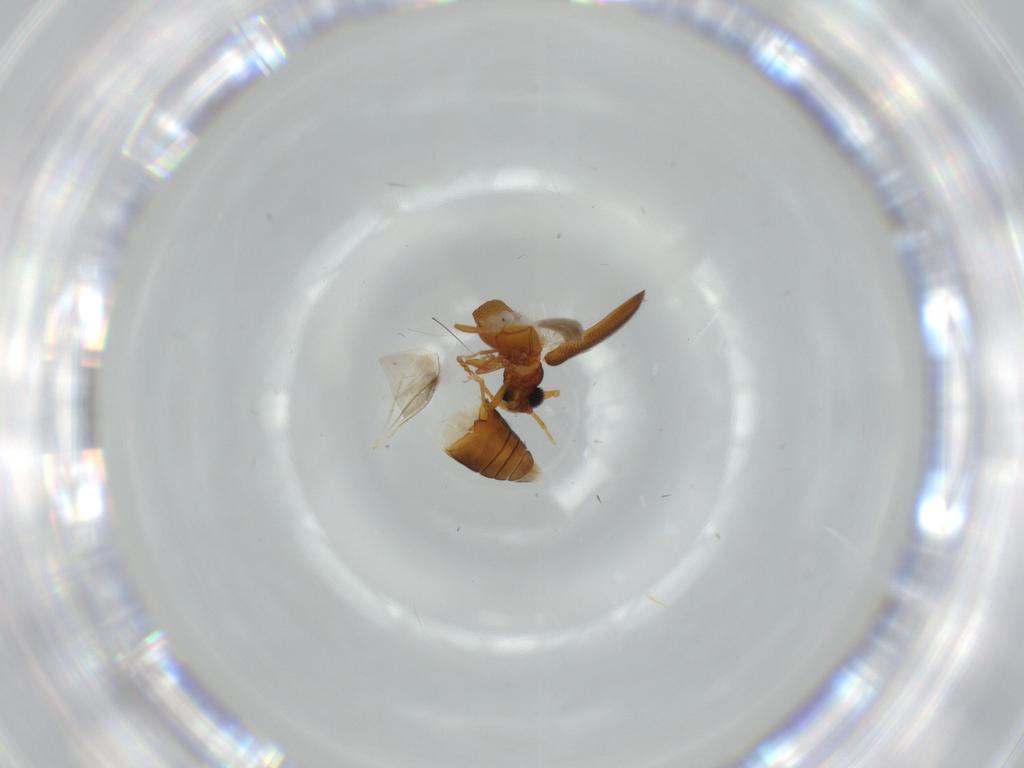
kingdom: Animalia
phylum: Arthropoda
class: Insecta
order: Coleoptera
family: Aderidae
